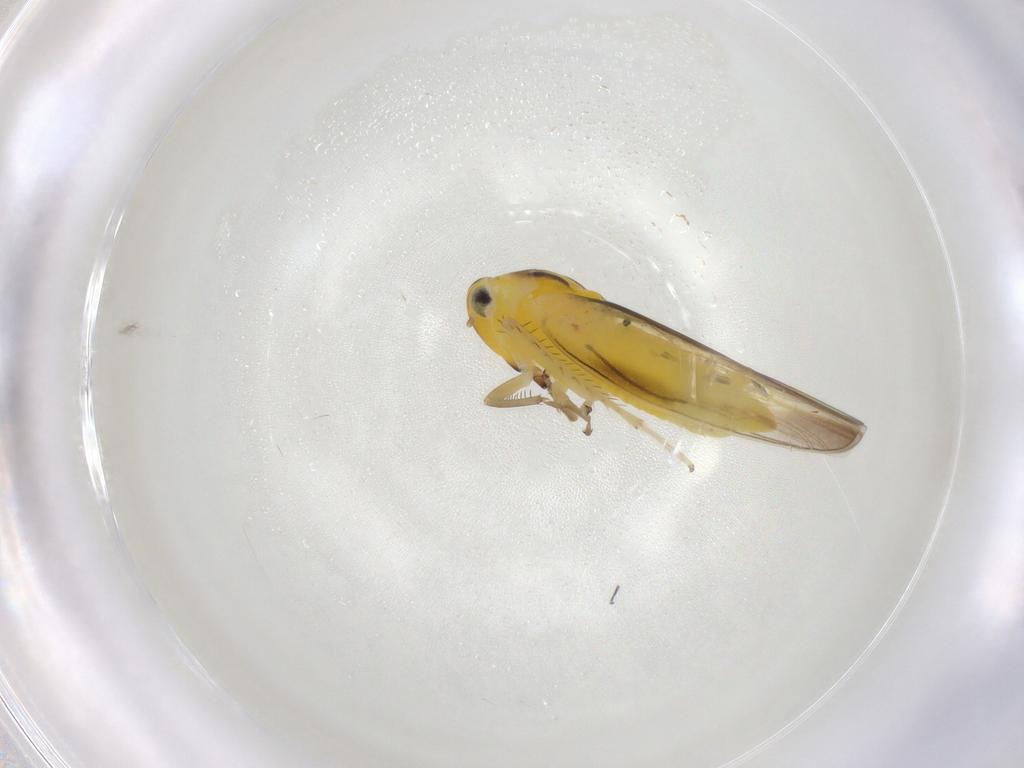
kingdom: Animalia
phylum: Arthropoda
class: Insecta
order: Hemiptera
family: Cicadellidae
